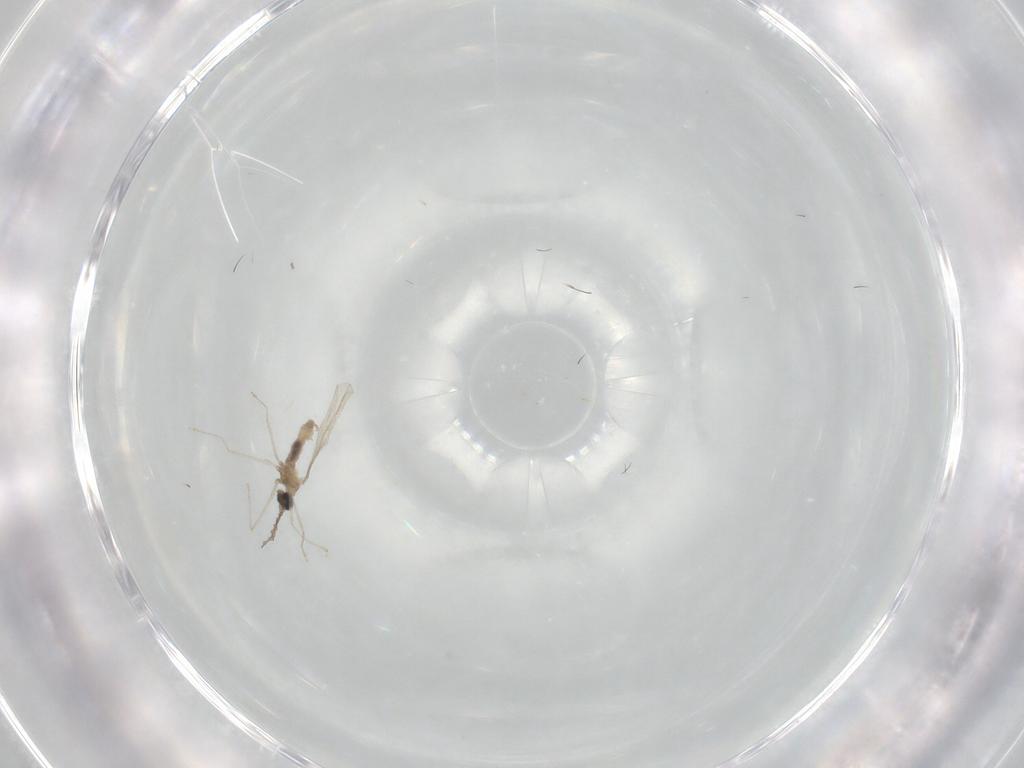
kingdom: Animalia
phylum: Arthropoda
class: Insecta
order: Diptera
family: Cecidomyiidae
